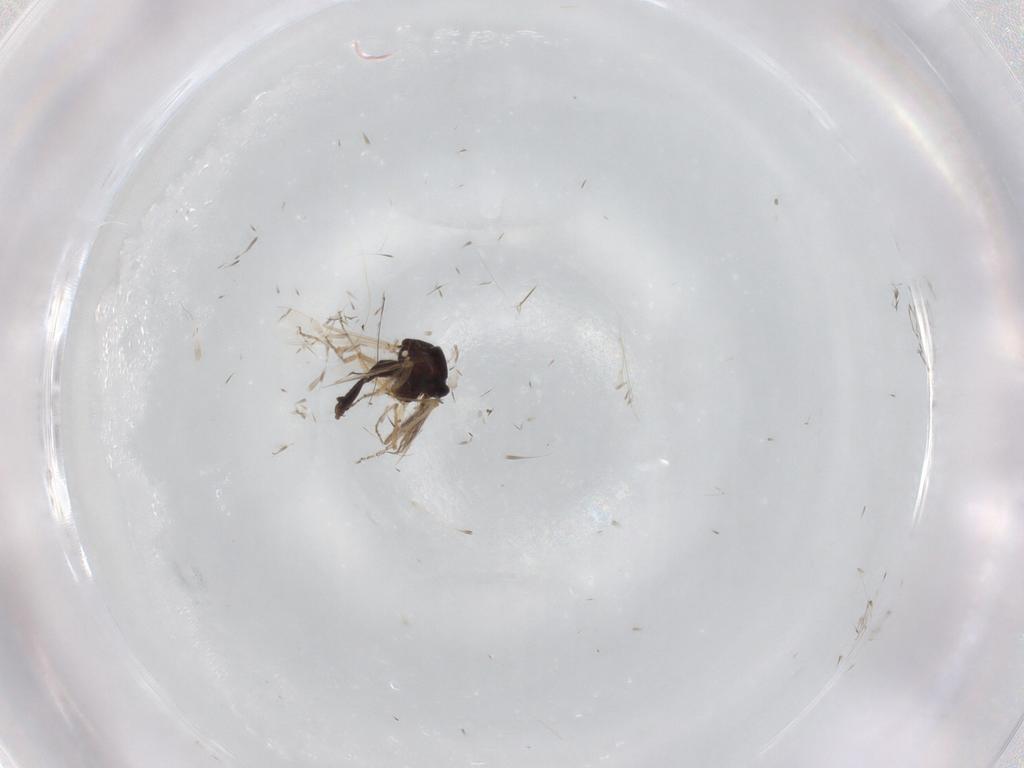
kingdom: Animalia
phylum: Arthropoda
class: Insecta
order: Diptera
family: Ceratopogonidae
